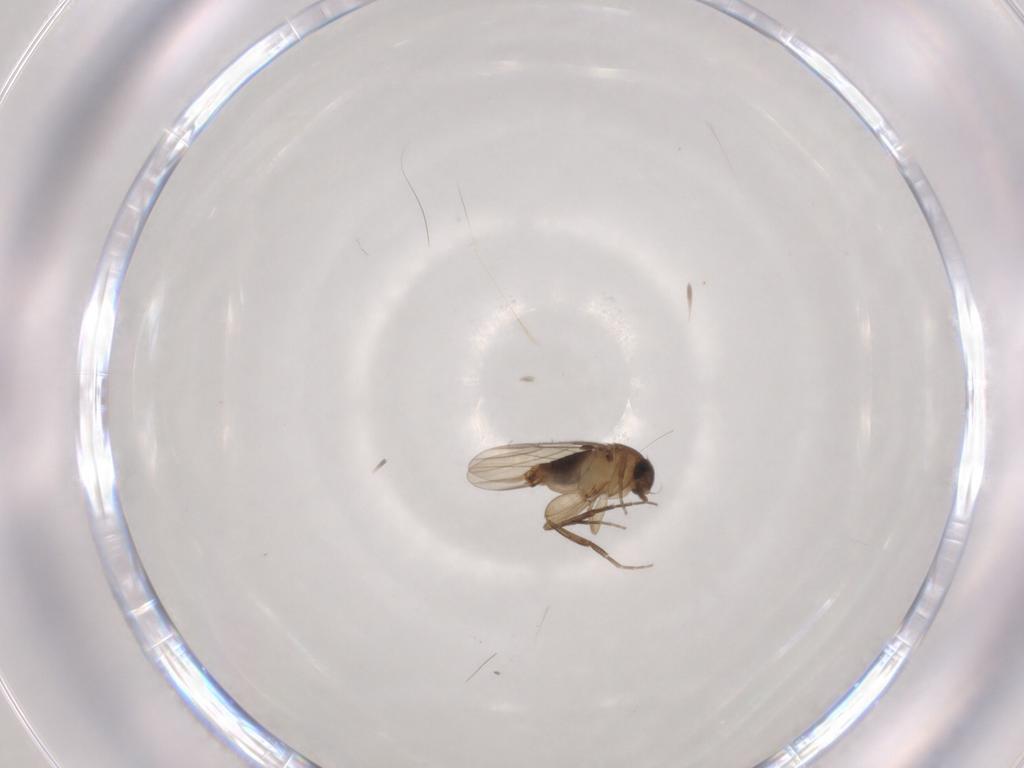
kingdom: Animalia
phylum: Arthropoda
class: Insecta
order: Diptera
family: Phoridae
